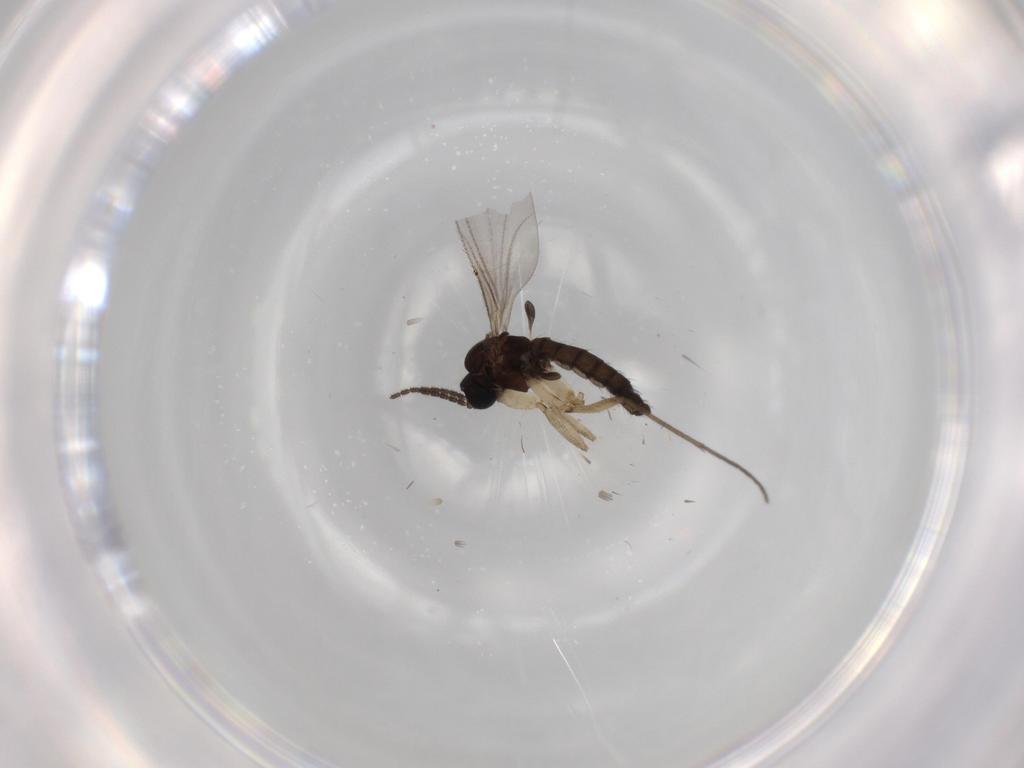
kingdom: Animalia
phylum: Arthropoda
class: Insecta
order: Diptera
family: Sciaridae
